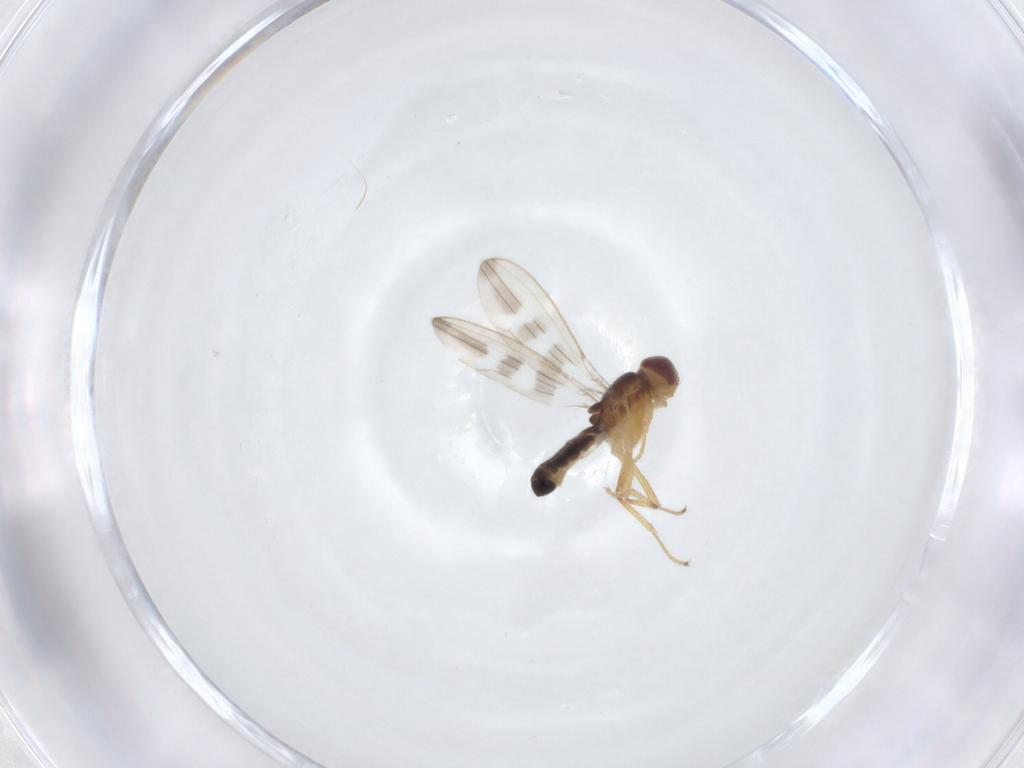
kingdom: Animalia
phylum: Arthropoda
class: Insecta
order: Diptera
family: Periscelididae
